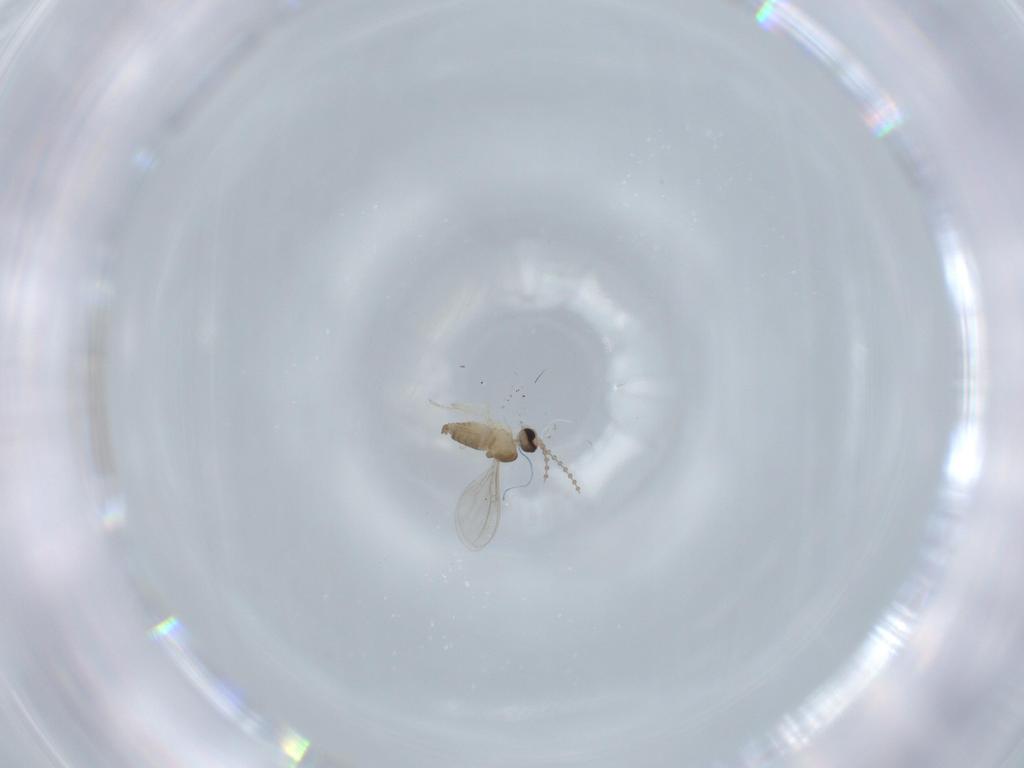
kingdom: Animalia
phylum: Arthropoda
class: Insecta
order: Diptera
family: Cecidomyiidae
